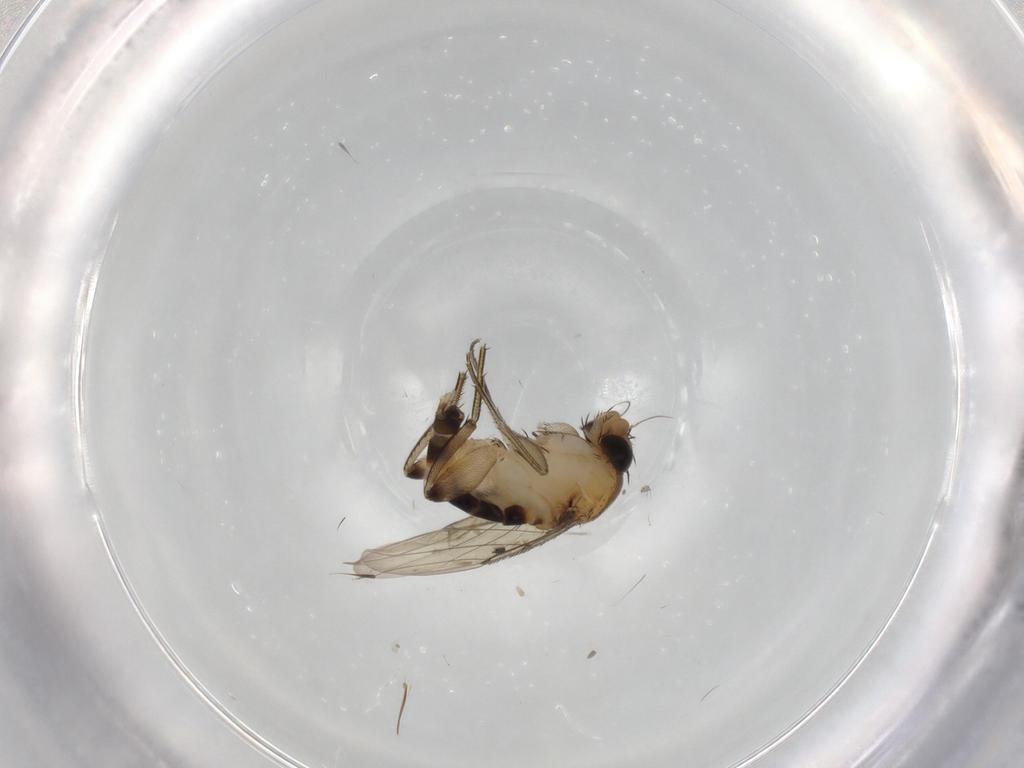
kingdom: Animalia
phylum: Arthropoda
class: Insecta
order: Diptera
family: Phoridae
